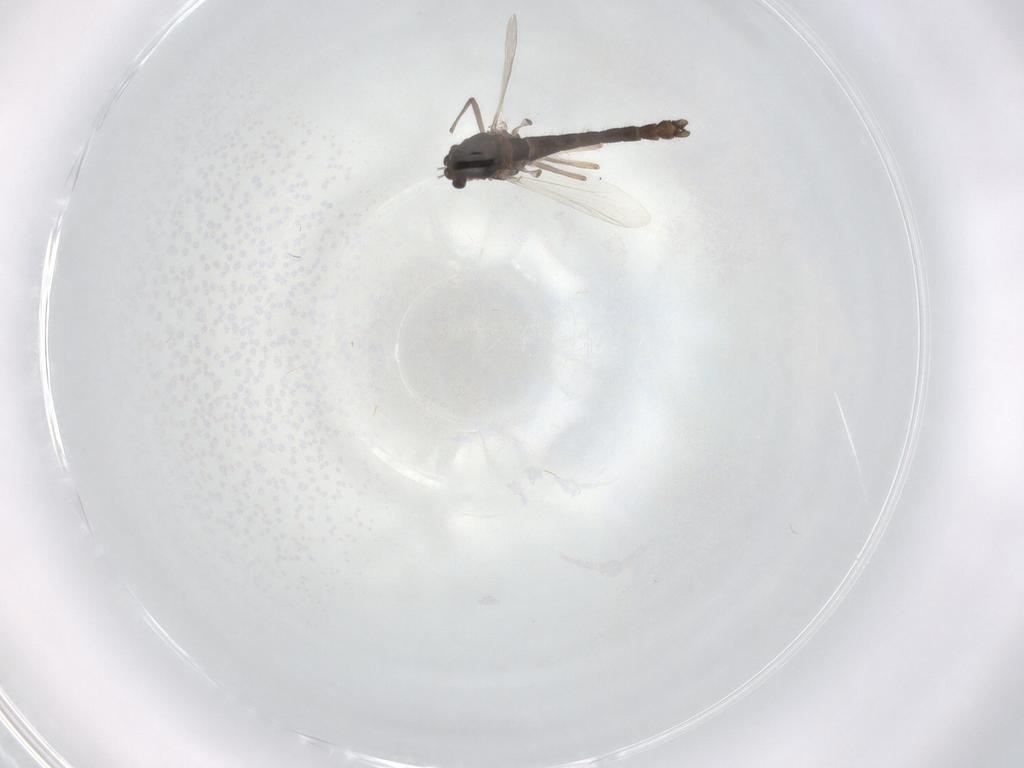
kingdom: Animalia
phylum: Arthropoda
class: Insecta
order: Diptera
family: Chironomidae
